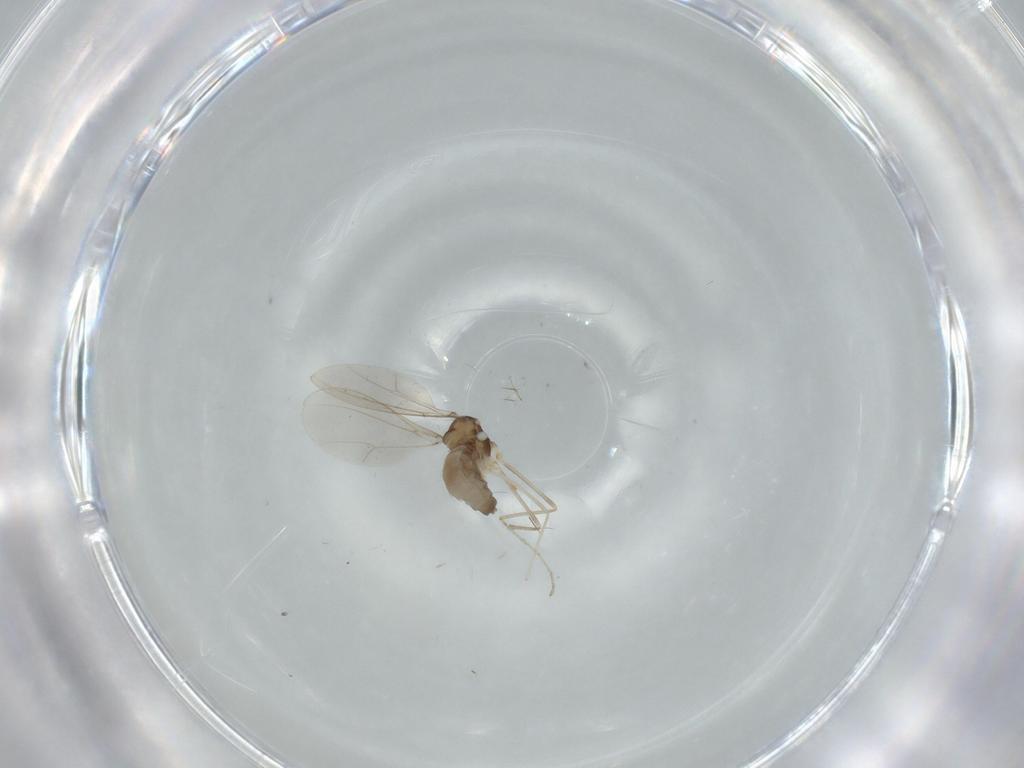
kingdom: Animalia
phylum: Arthropoda
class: Insecta
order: Diptera
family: Cecidomyiidae
